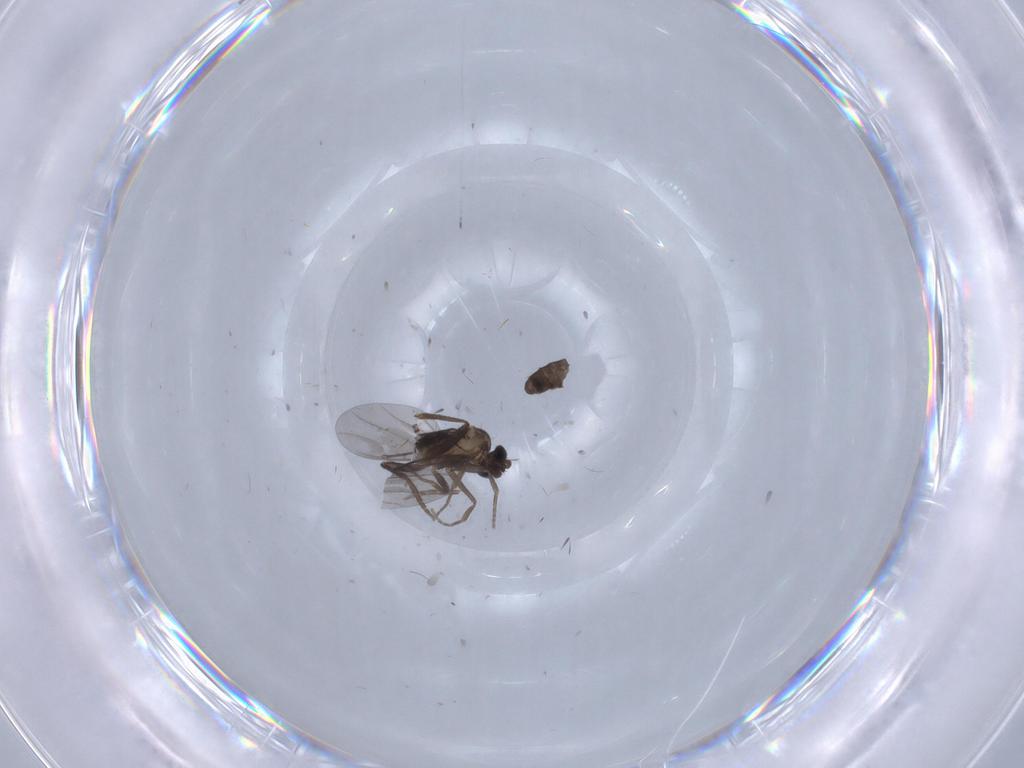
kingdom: Animalia
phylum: Arthropoda
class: Insecta
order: Diptera
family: Phoridae
